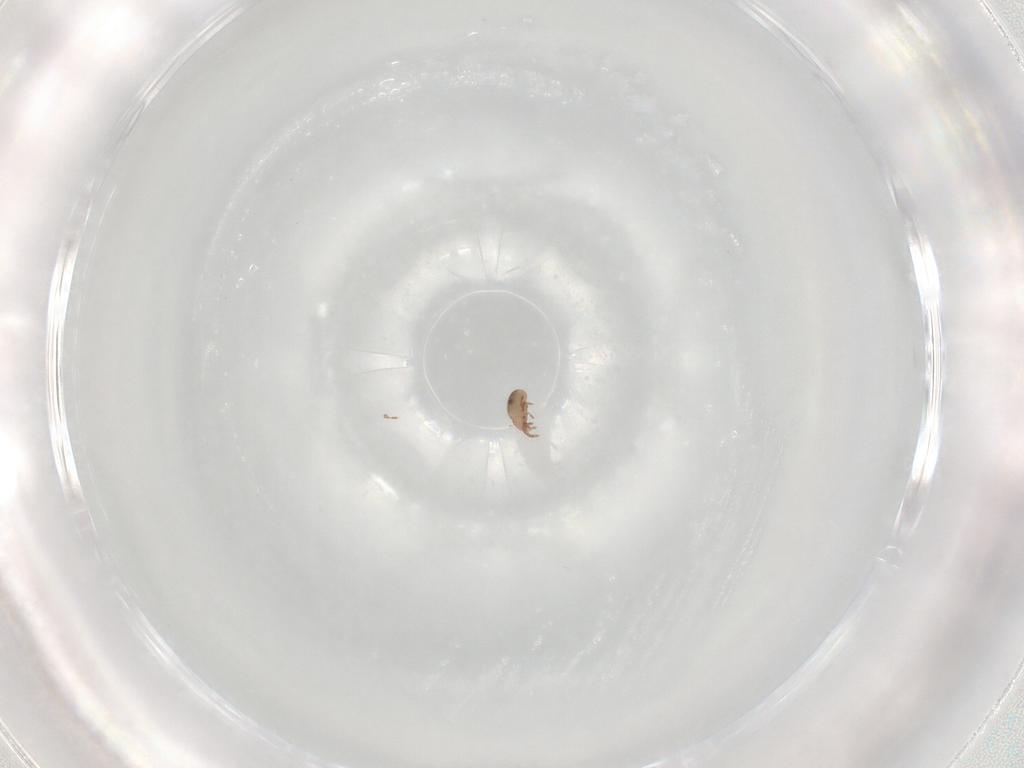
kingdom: Animalia
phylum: Arthropoda
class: Arachnida
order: Sarcoptiformes
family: Eremaeidae
